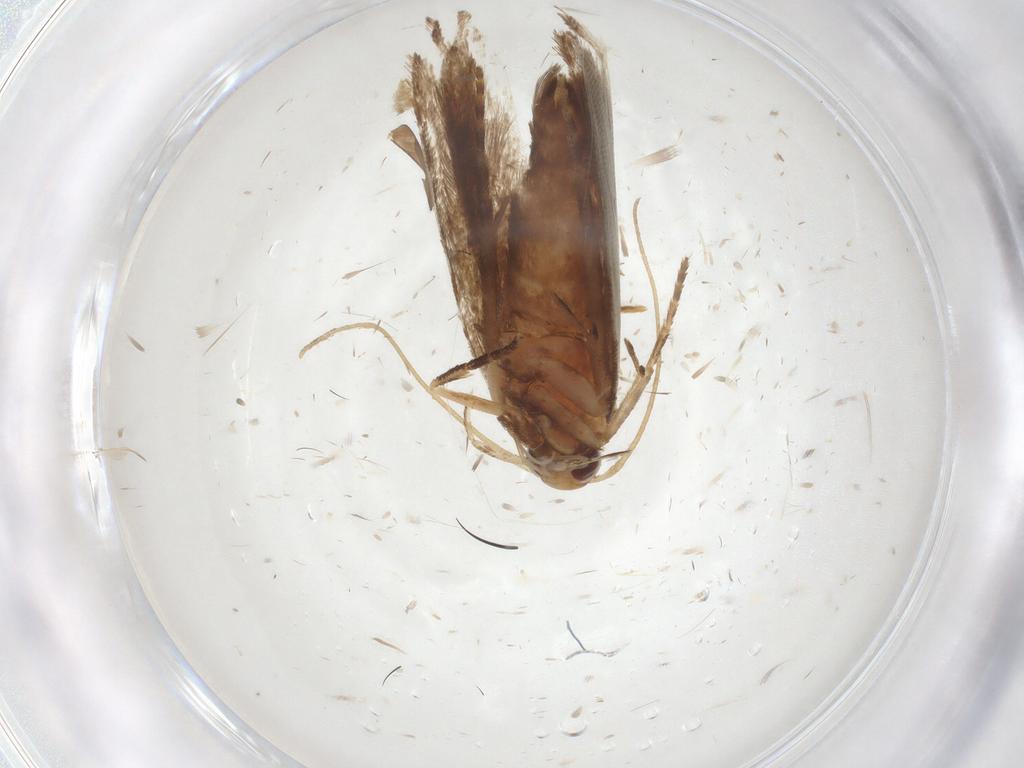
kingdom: Animalia
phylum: Arthropoda
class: Insecta
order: Lepidoptera
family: Gelechiidae
